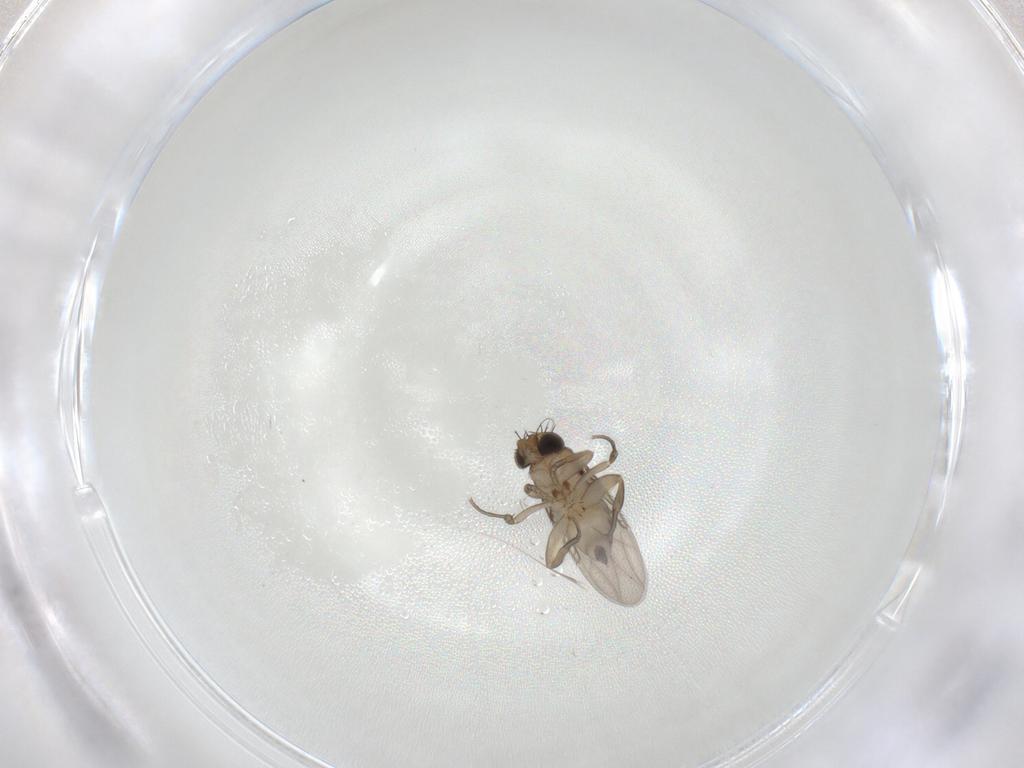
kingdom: Animalia
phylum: Arthropoda
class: Insecta
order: Diptera
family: Phoridae
